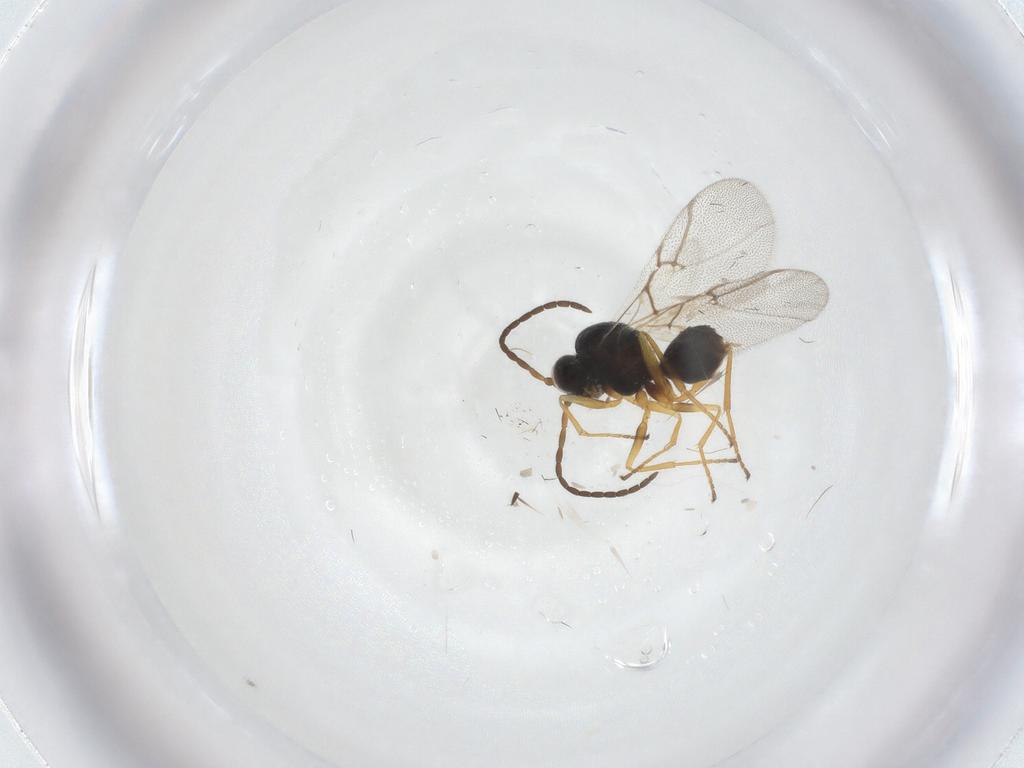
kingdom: Animalia
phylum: Arthropoda
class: Insecta
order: Hymenoptera
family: Cynipidae
